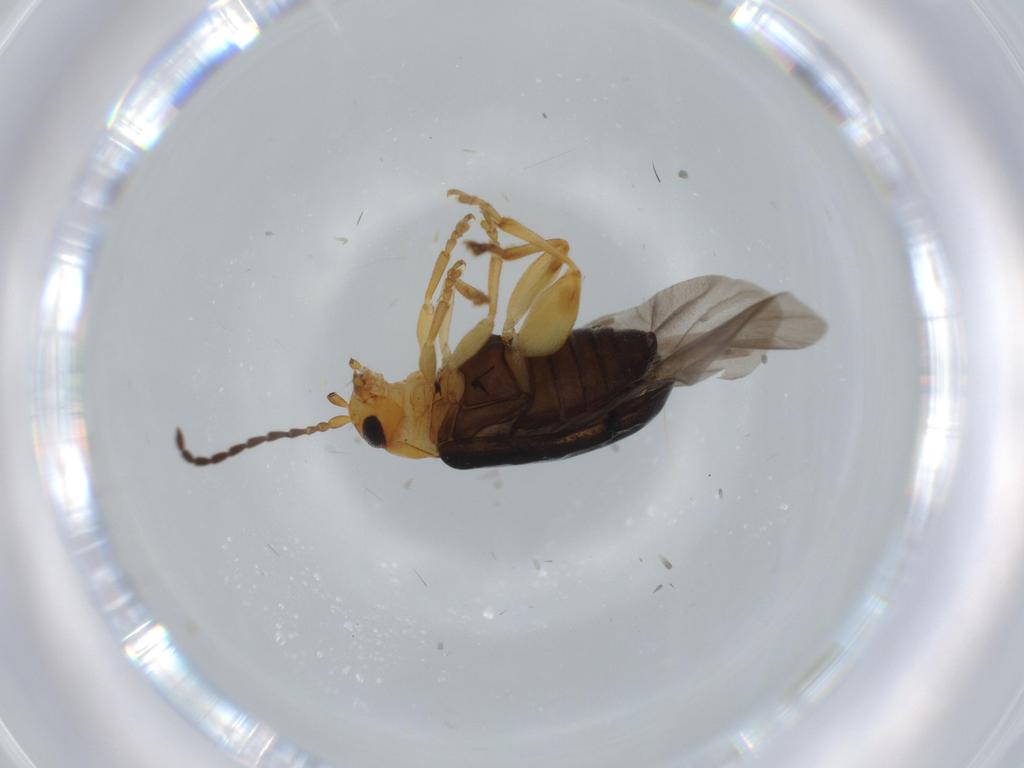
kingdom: Animalia
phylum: Arthropoda
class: Insecta
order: Coleoptera
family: Chrysomelidae
